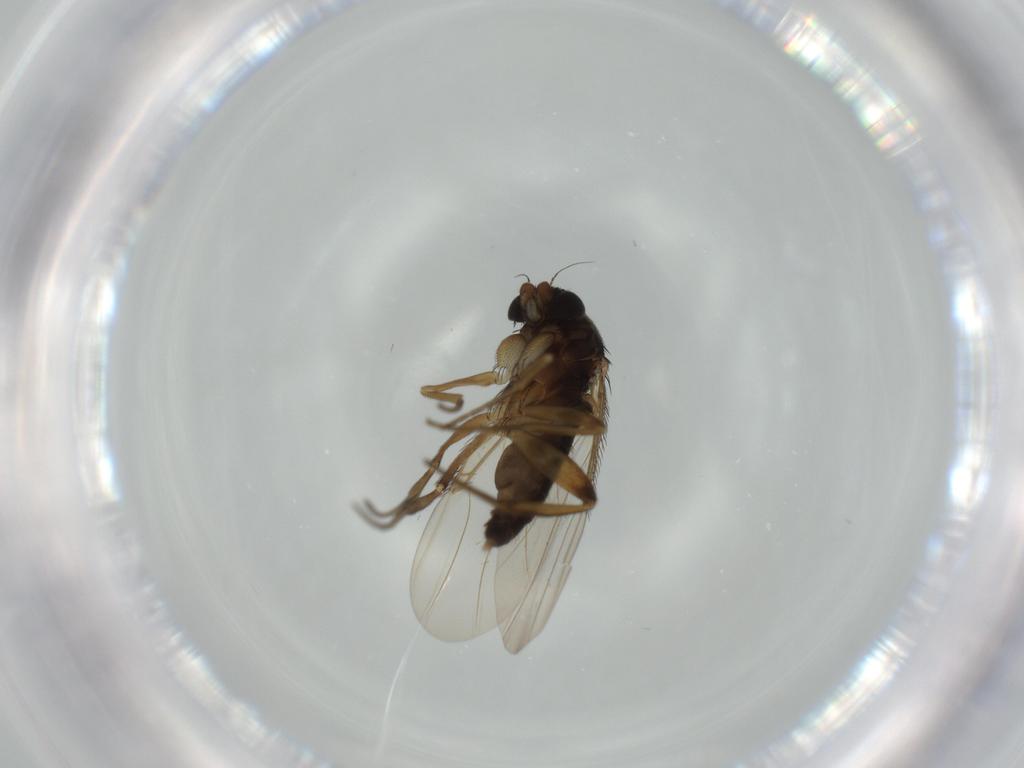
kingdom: Animalia
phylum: Arthropoda
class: Insecta
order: Diptera
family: Phoridae
